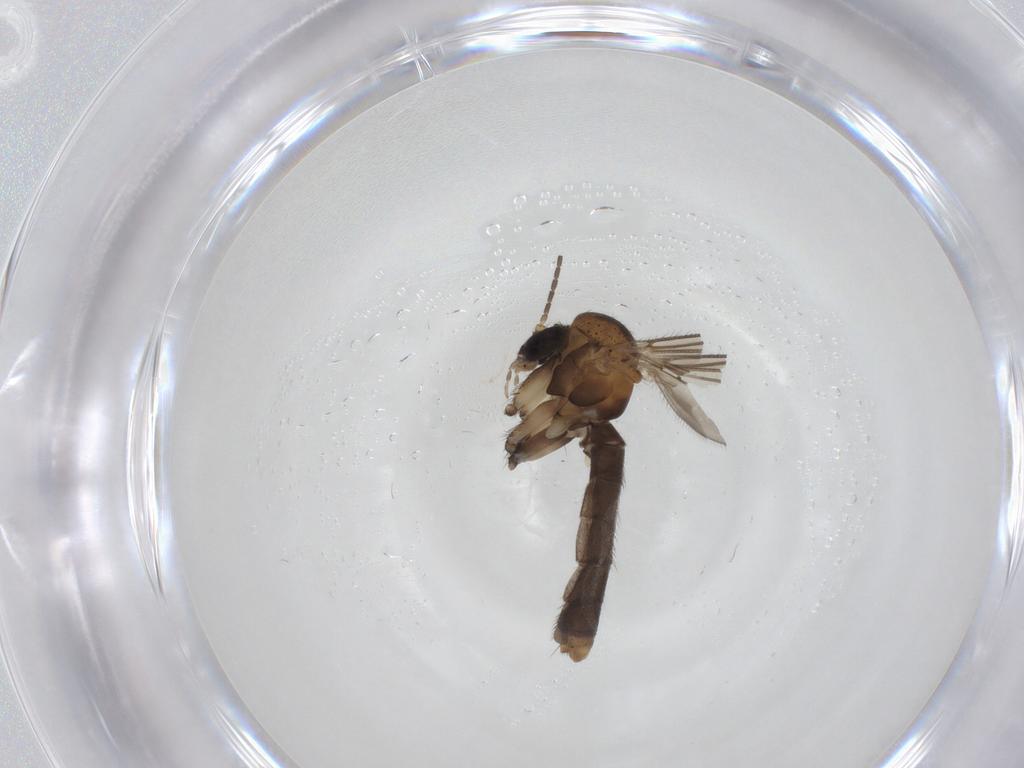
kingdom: Animalia
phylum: Arthropoda
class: Insecta
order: Diptera
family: Mycetophilidae
